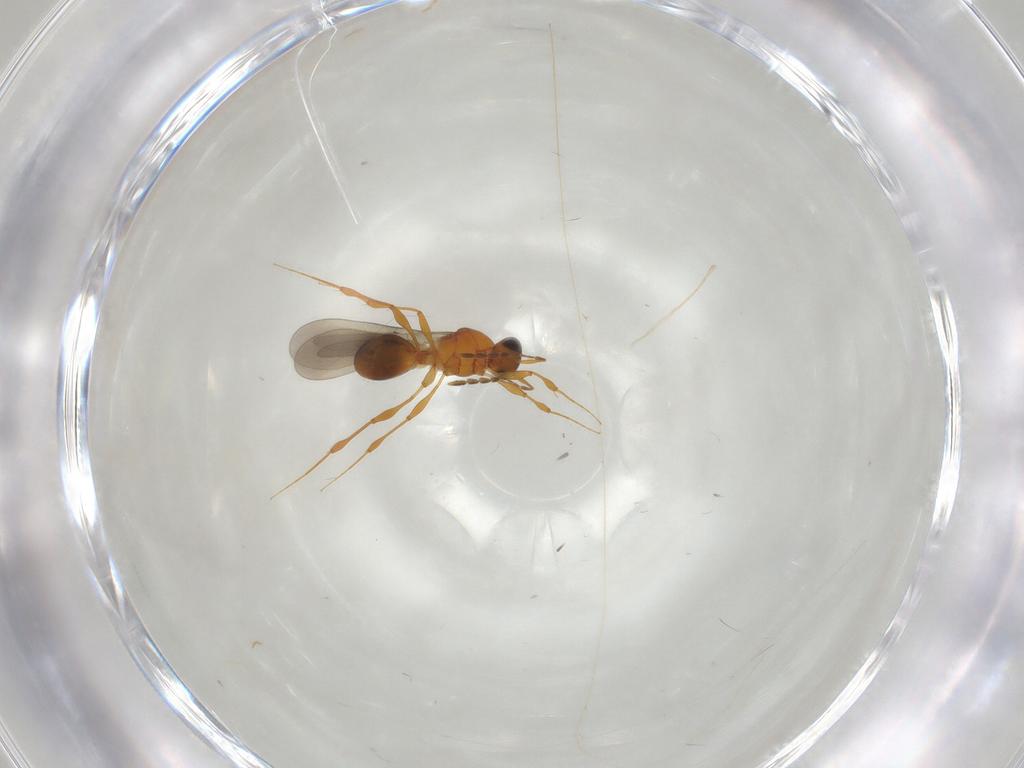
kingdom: Animalia
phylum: Arthropoda
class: Insecta
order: Hymenoptera
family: Platygastridae
